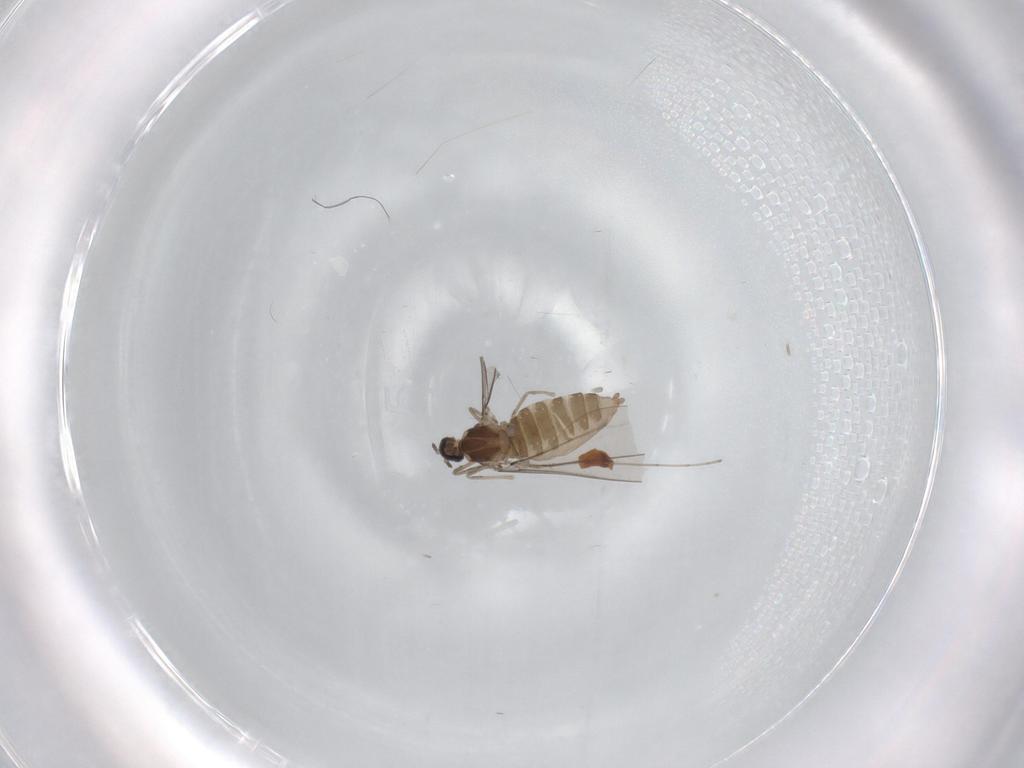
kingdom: Animalia
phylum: Arthropoda
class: Insecta
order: Diptera
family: Cecidomyiidae
